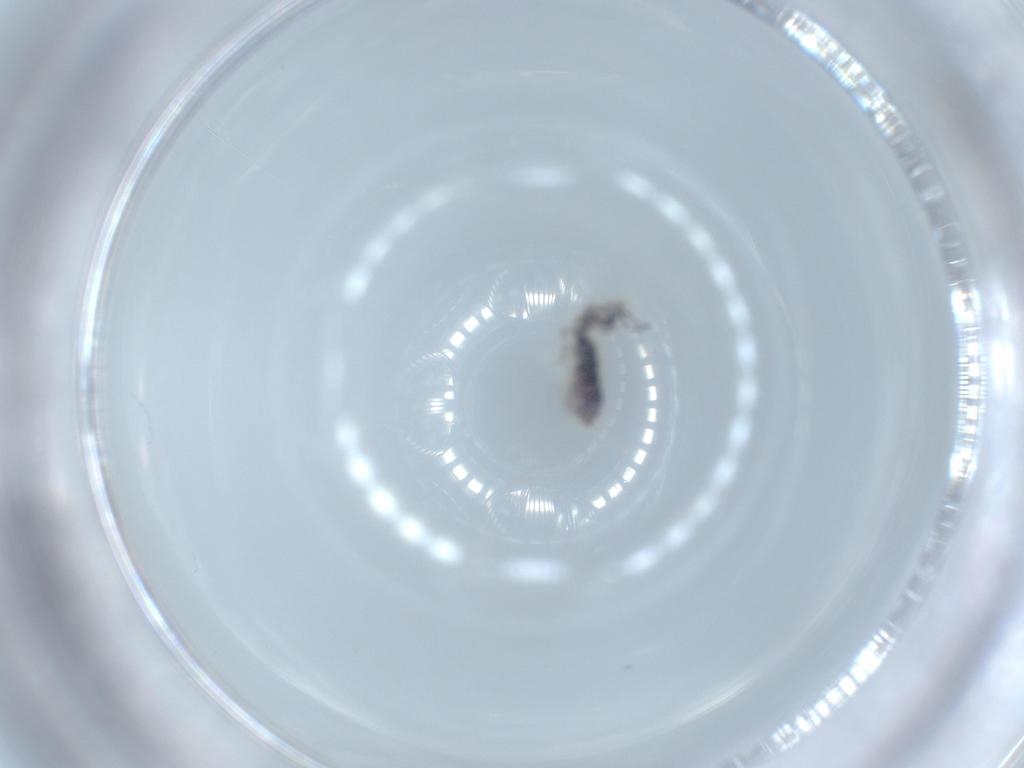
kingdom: Animalia
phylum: Arthropoda
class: Collembola
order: Entomobryomorpha
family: Isotomidae
